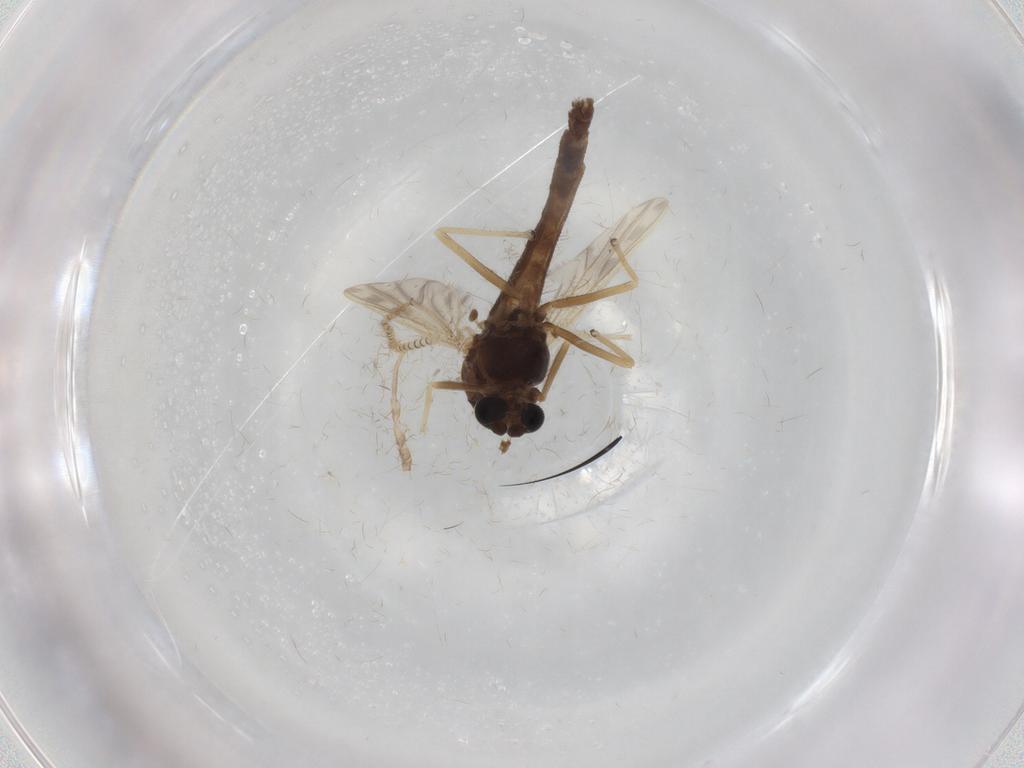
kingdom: Animalia
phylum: Arthropoda
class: Insecta
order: Diptera
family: Chironomidae
